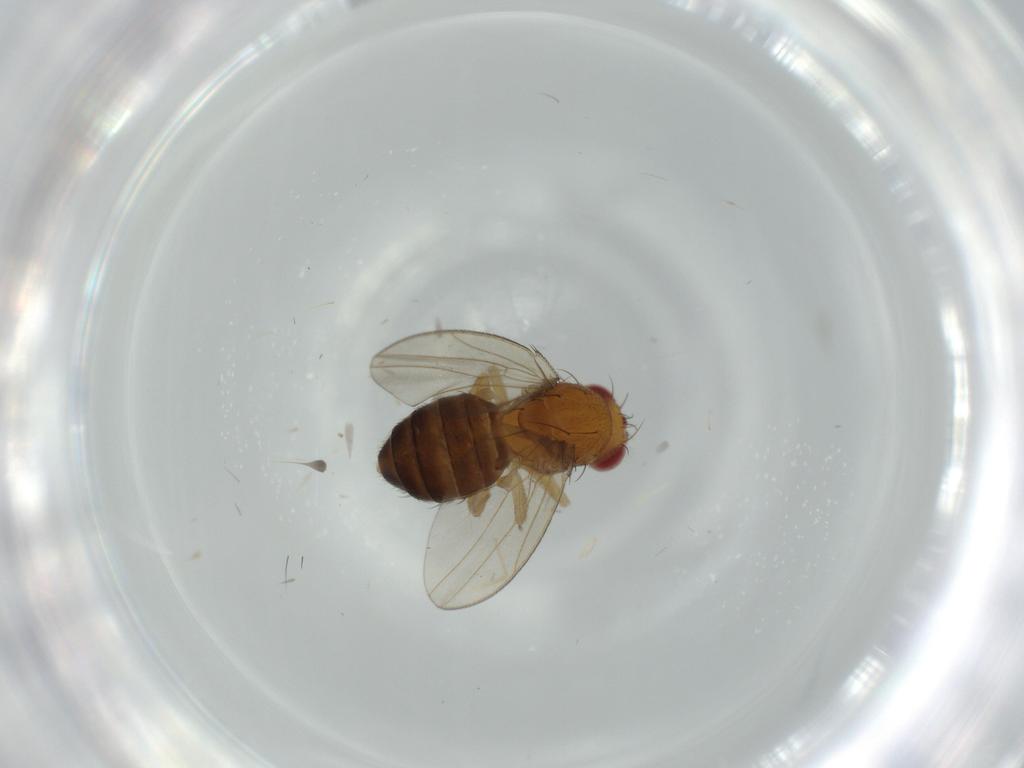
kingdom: Animalia
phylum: Arthropoda
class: Insecta
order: Diptera
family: Drosophilidae
